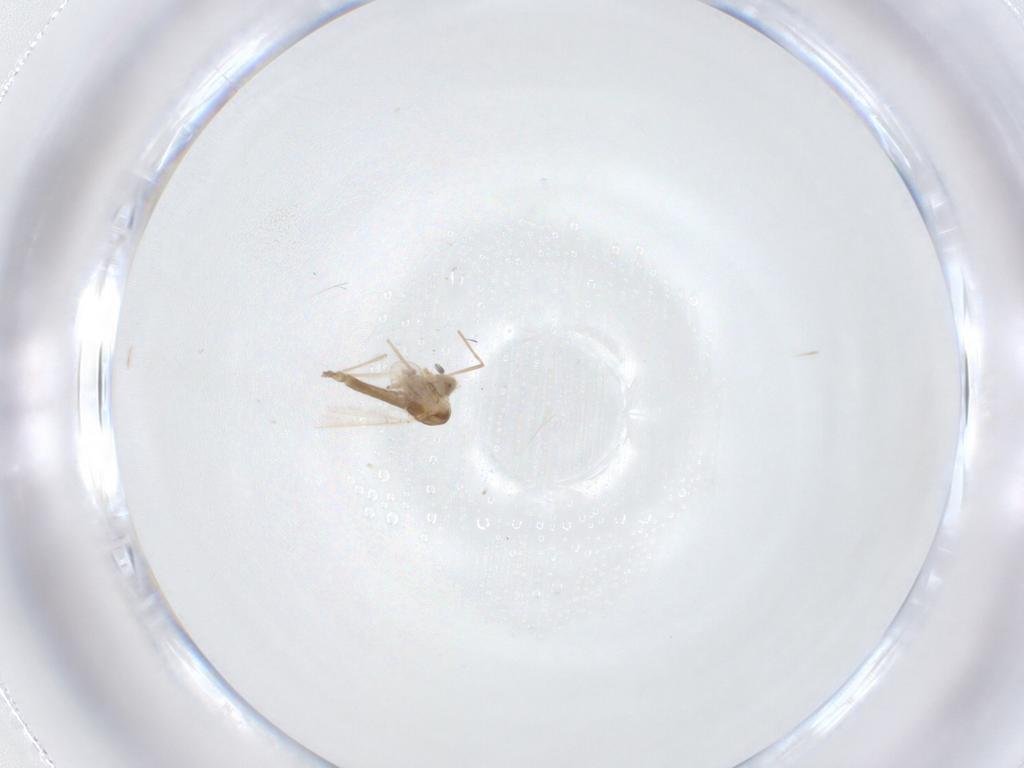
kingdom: Animalia
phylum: Arthropoda
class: Insecta
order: Diptera
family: Chironomidae
